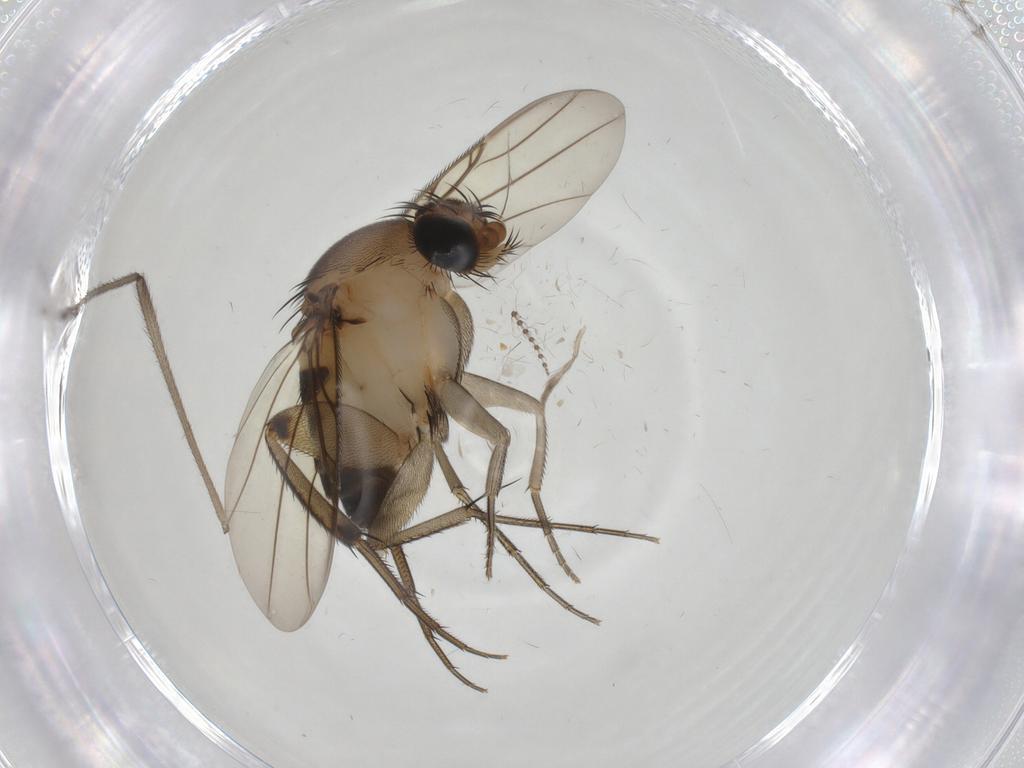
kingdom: Animalia
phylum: Arthropoda
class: Insecta
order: Diptera
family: Phoridae
